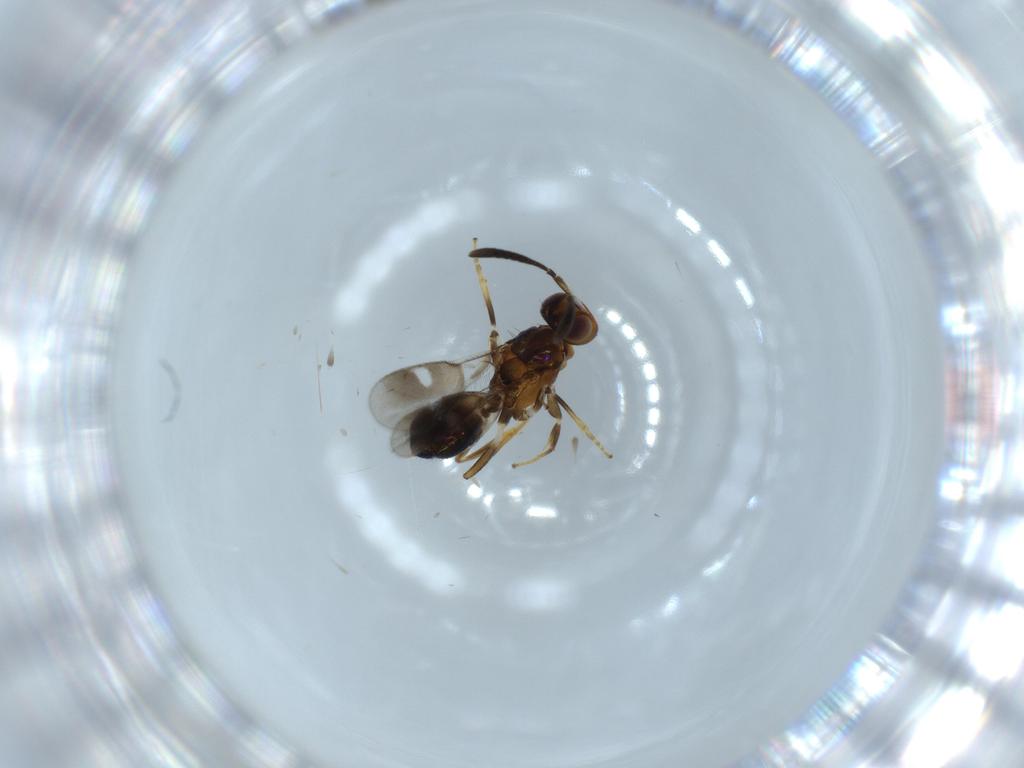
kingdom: Animalia
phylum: Arthropoda
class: Insecta
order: Hymenoptera
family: Eupelmidae
